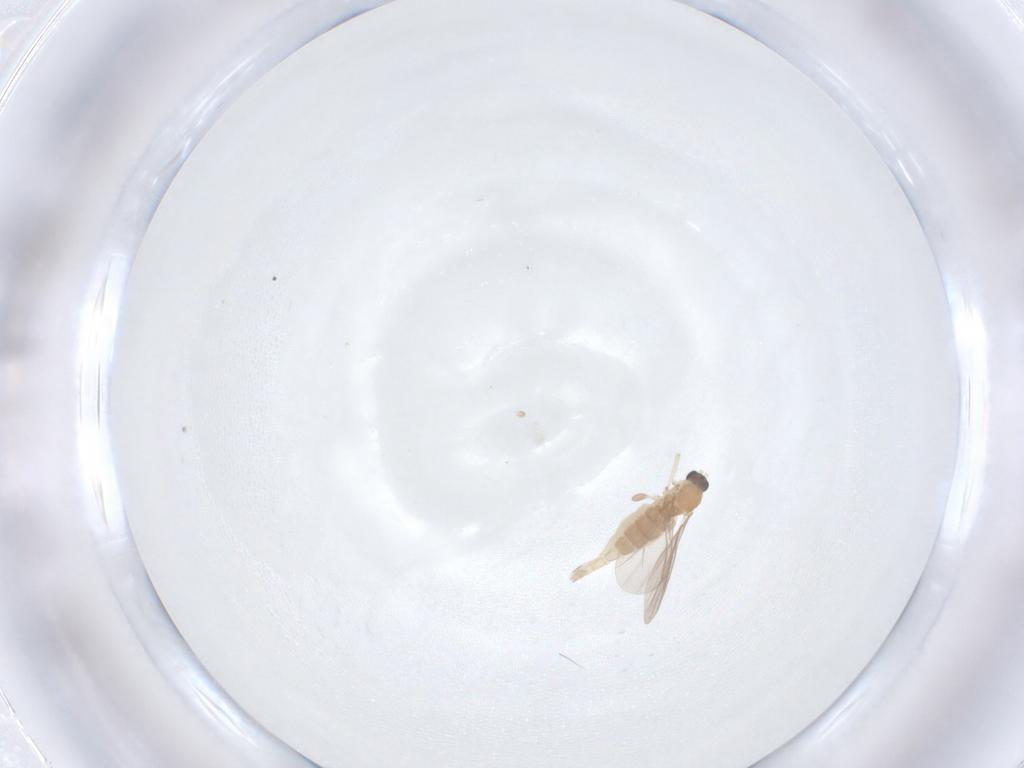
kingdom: Animalia
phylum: Arthropoda
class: Insecta
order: Diptera
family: Sciaridae
